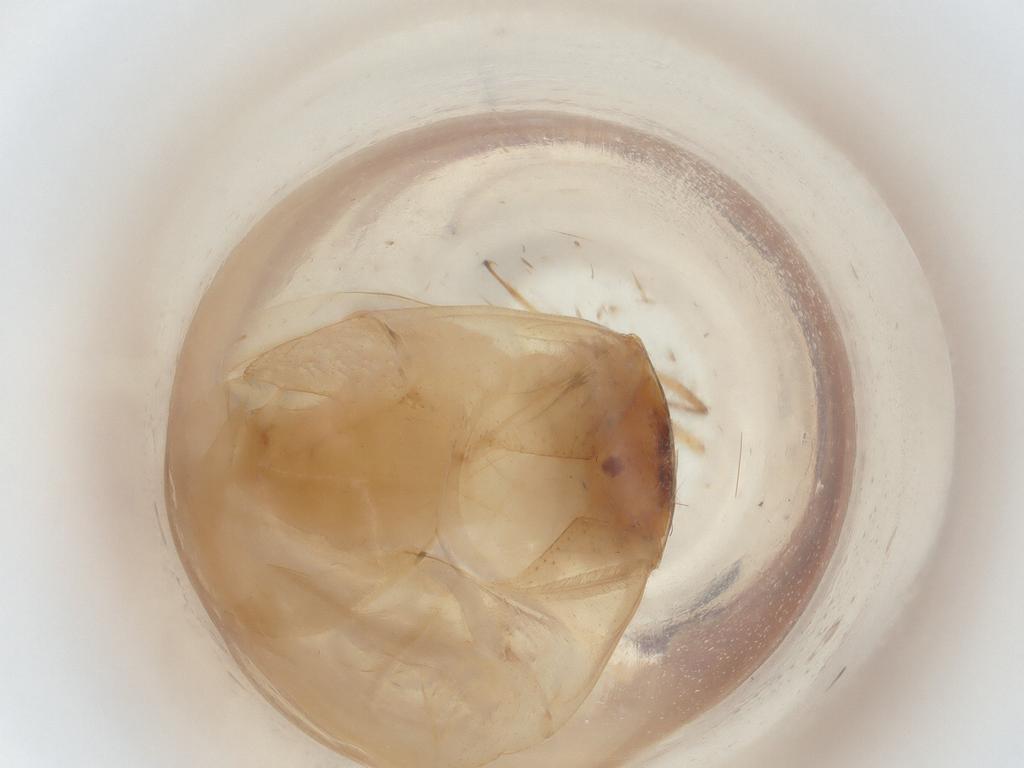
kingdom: Animalia
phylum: Arthropoda
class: Insecta
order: Hemiptera
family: Miridae
